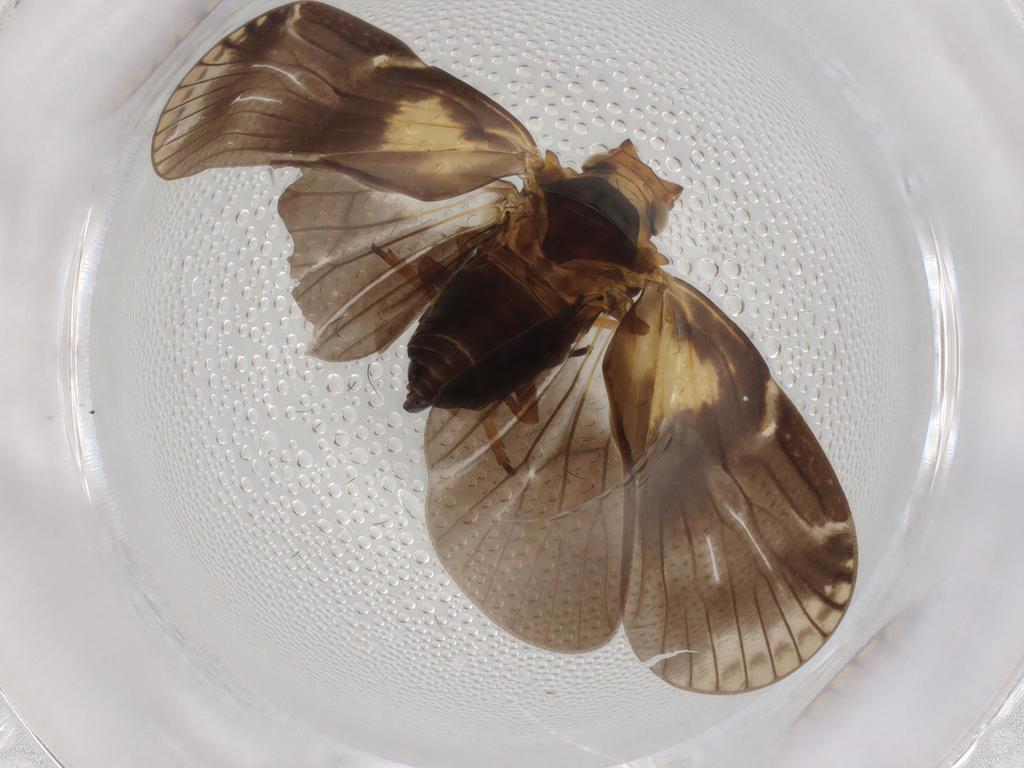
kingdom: Animalia
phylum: Arthropoda
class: Insecta
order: Hemiptera
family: Cixiidae
